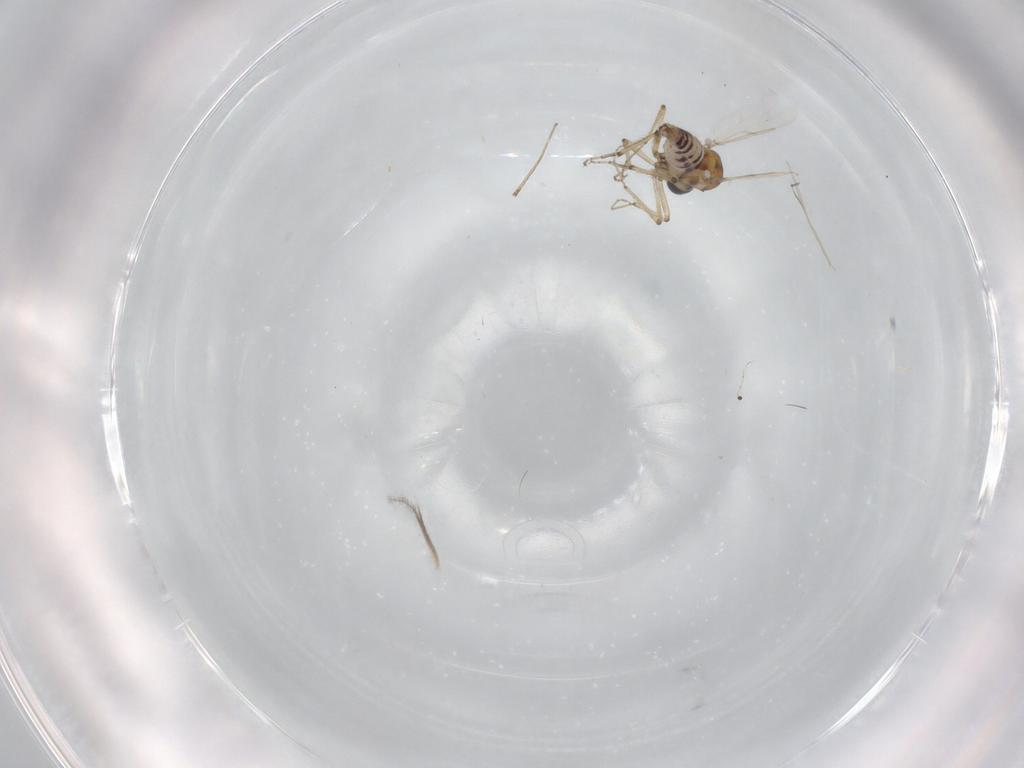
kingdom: Animalia
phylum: Arthropoda
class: Insecta
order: Diptera
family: Ceratopogonidae
